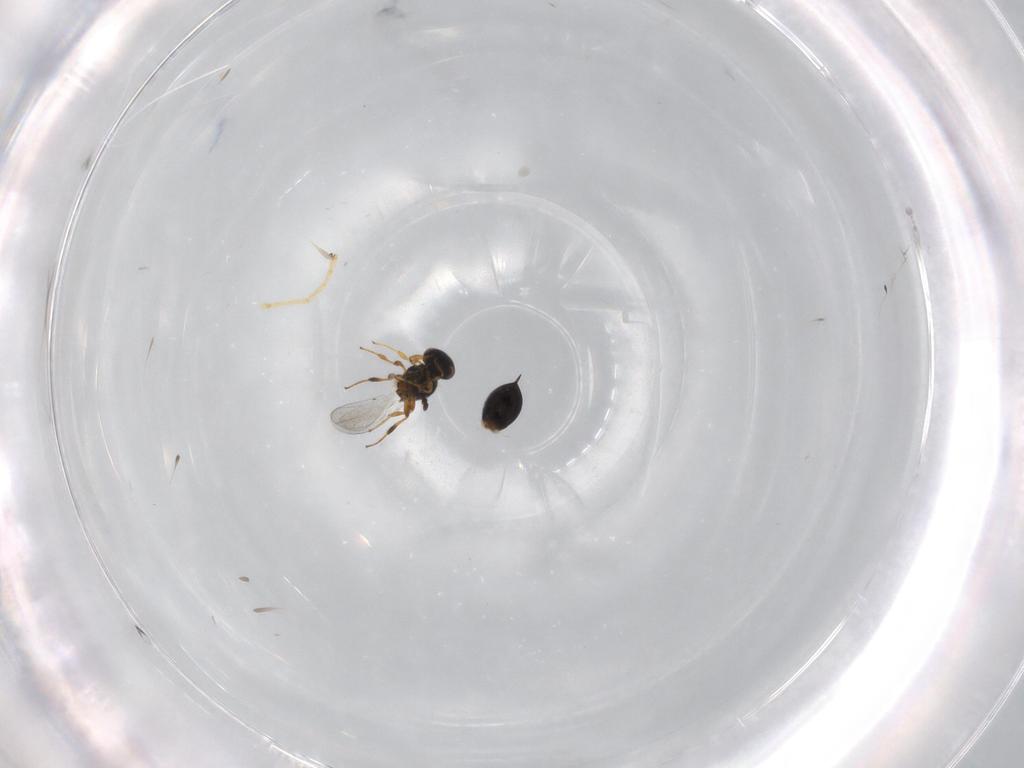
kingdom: Animalia
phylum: Arthropoda
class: Insecta
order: Hymenoptera
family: Platygastridae
